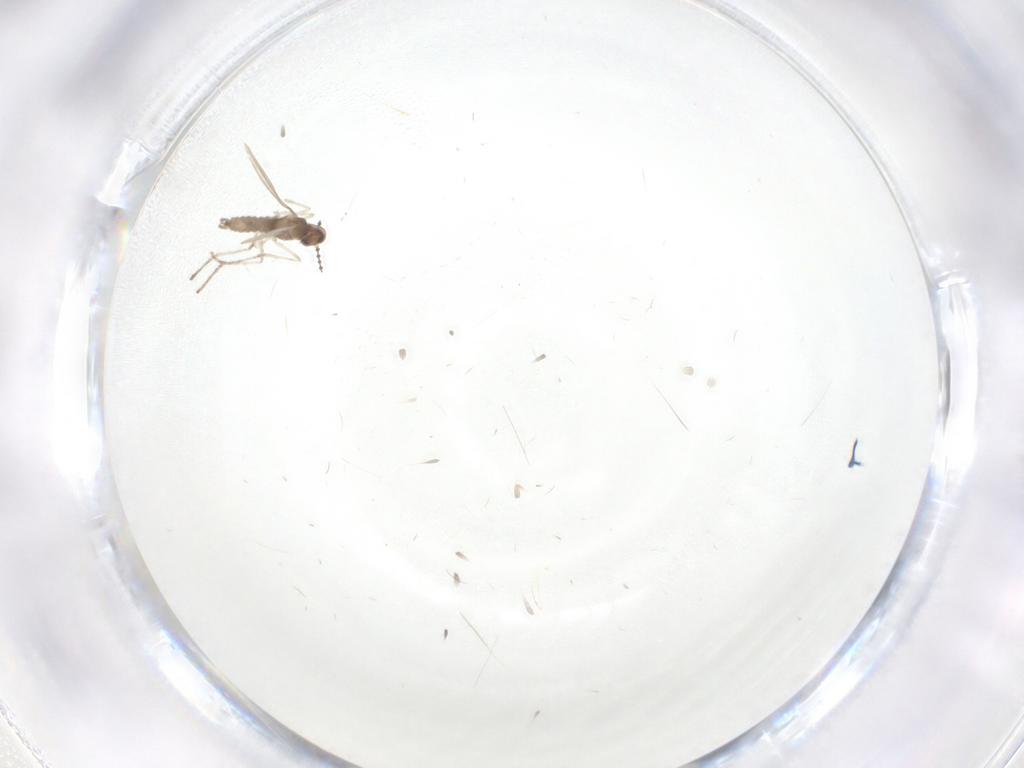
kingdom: Animalia
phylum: Arthropoda
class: Insecta
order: Diptera
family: Cecidomyiidae
